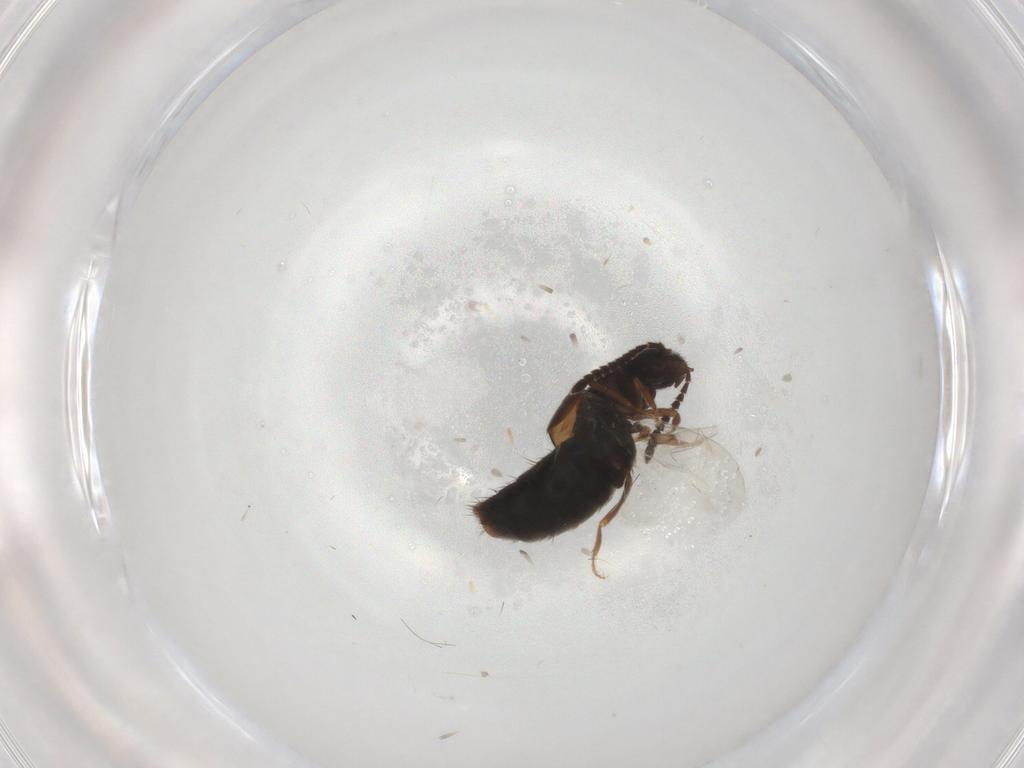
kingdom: Animalia
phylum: Arthropoda
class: Insecta
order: Coleoptera
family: Staphylinidae
